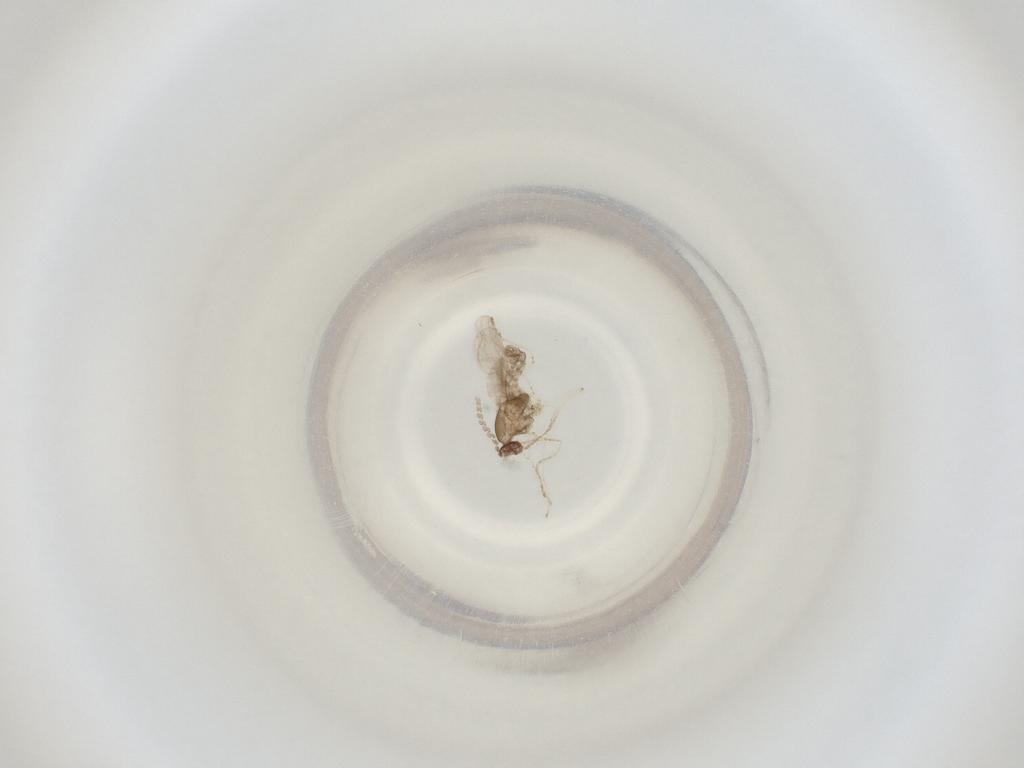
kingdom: Animalia
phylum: Arthropoda
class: Insecta
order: Diptera
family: Cecidomyiidae
